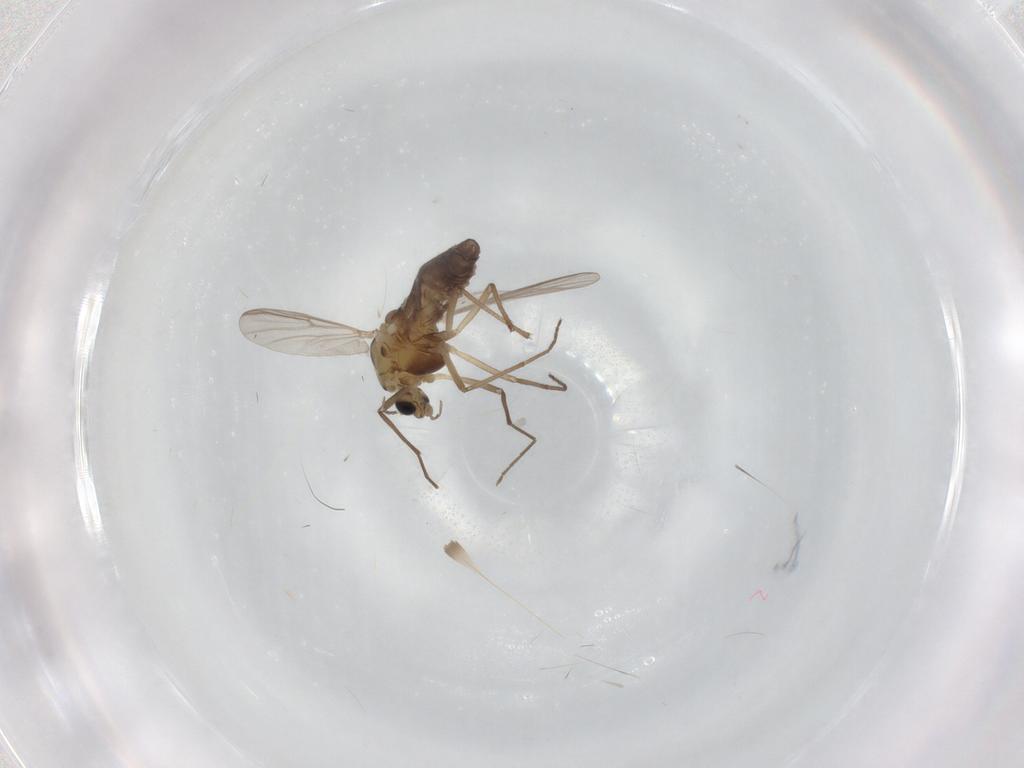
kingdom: Animalia
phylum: Arthropoda
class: Insecta
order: Diptera
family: Chironomidae
